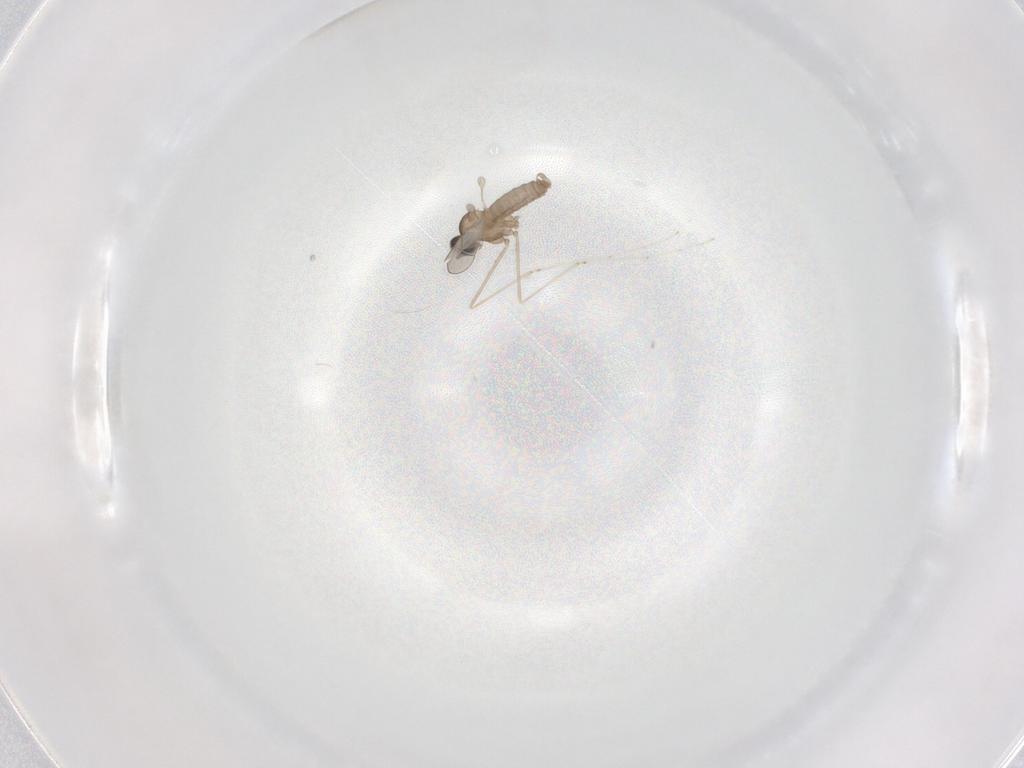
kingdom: Animalia
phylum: Arthropoda
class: Insecta
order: Diptera
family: Cecidomyiidae
